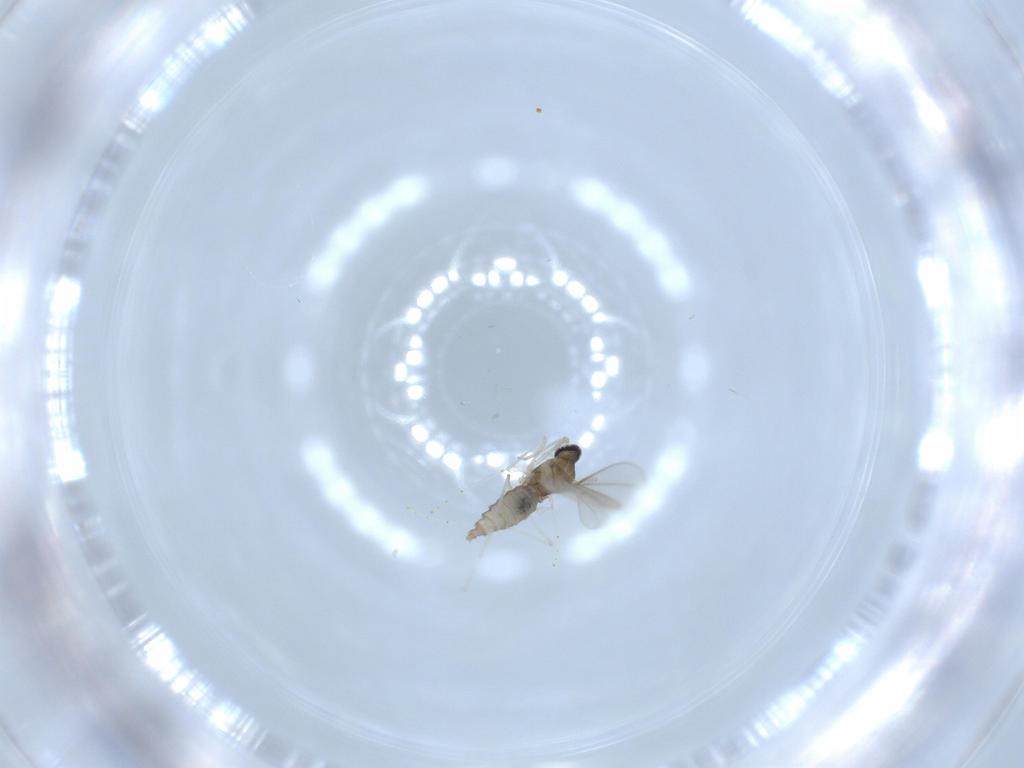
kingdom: Animalia
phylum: Arthropoda
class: Insecta
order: Diptera
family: Cecidomyiidae
